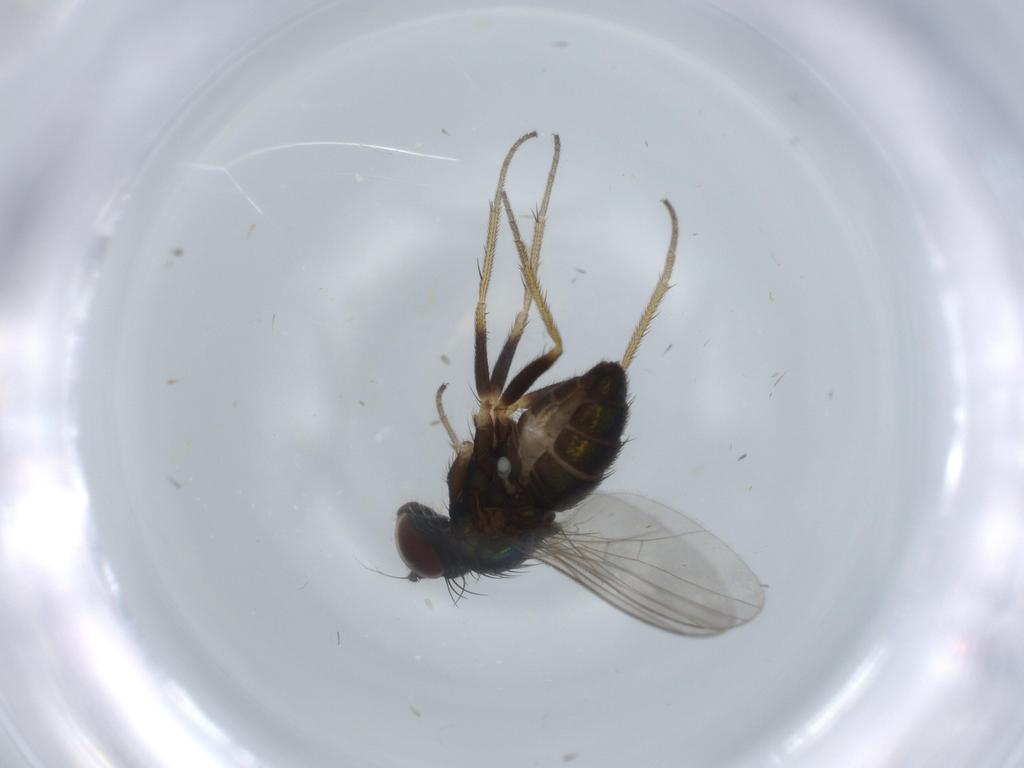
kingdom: Animalia
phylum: Arthropoda
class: Insecta
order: Diptera
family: Dolichopodidae
